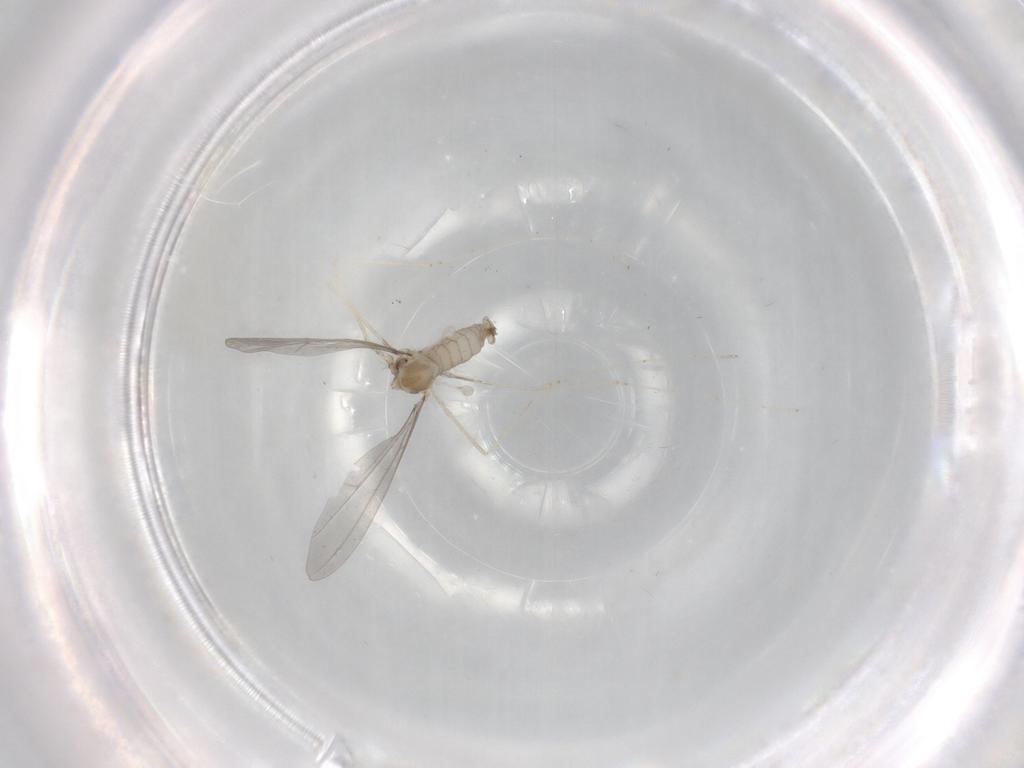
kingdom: Animalia
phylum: Arthropoda
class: Insecta
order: Diptera
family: Cecidomyiidae
